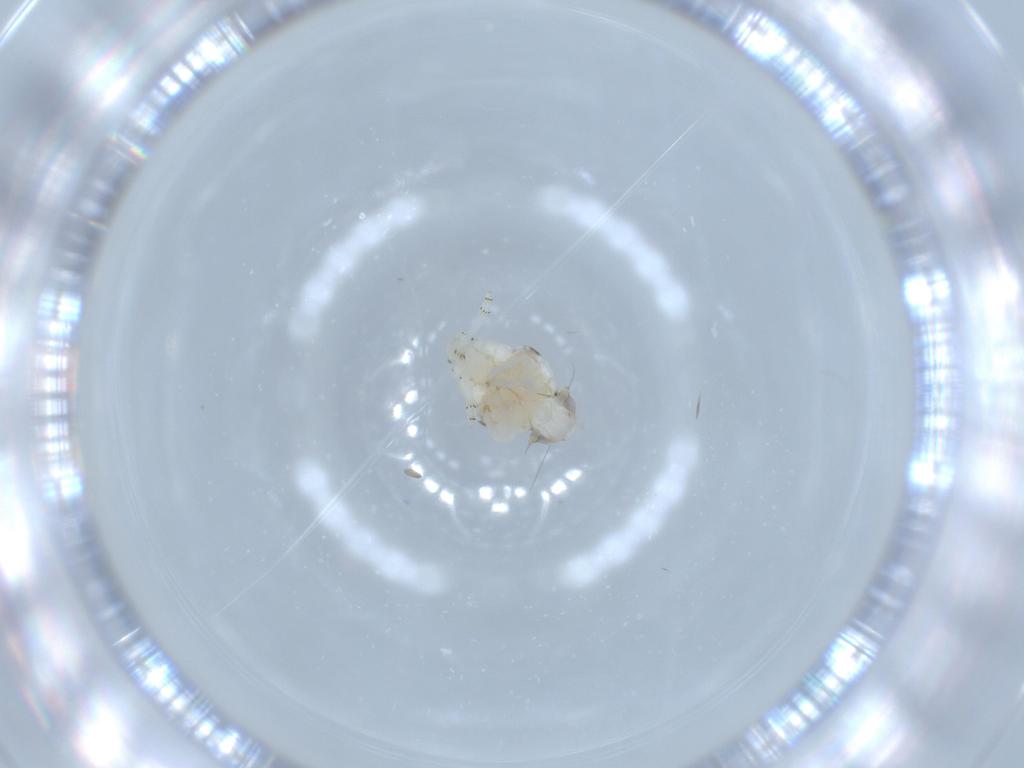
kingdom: Animalia
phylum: Arthropoda
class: Insecta
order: Hemiptera
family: Nogodinidae
